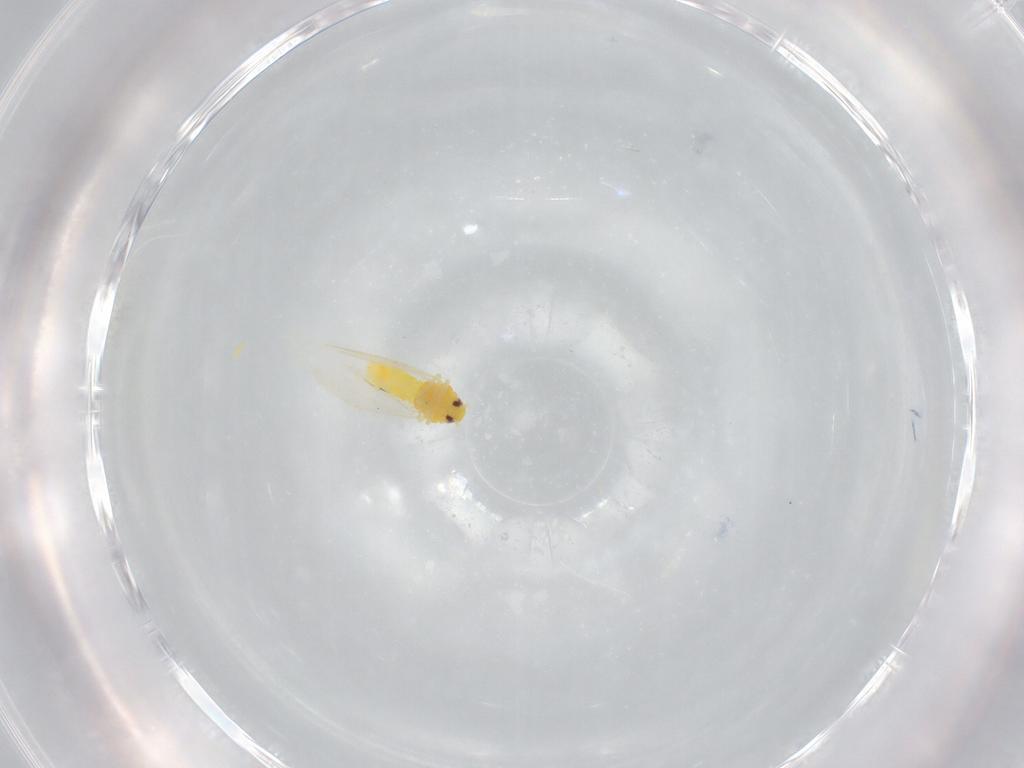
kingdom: Animalia
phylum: Arthropoda
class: Insecta
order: Hemiptera
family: Aleyrodidae
